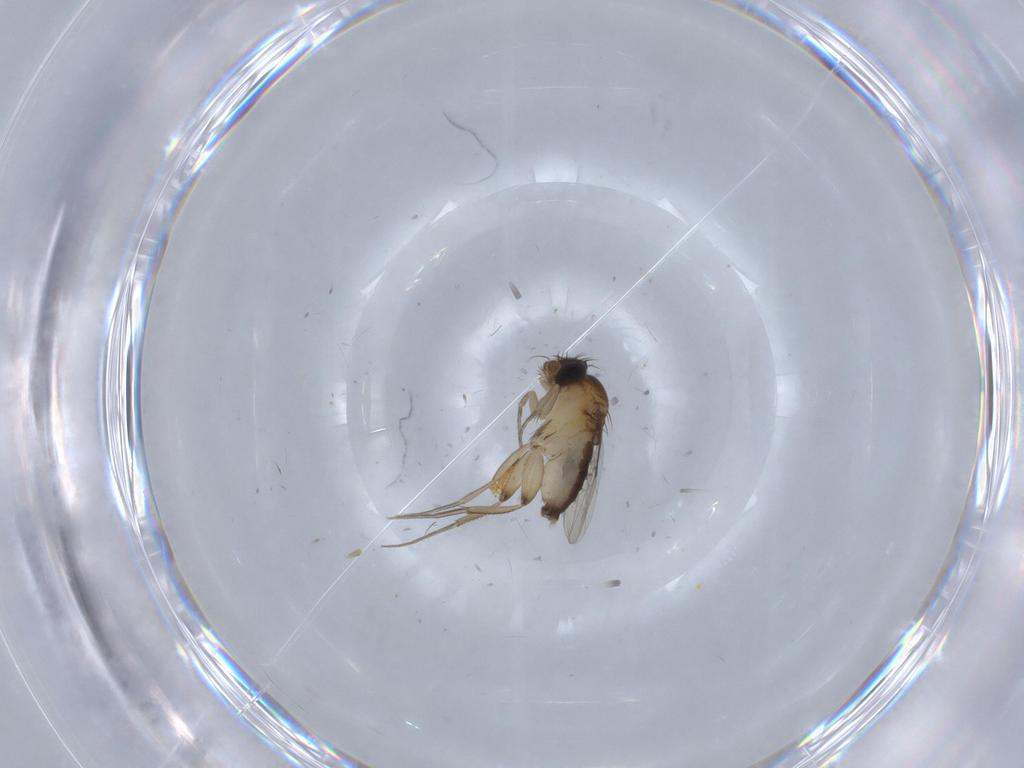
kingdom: Animalia
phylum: Arthropoda
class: Insecta
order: Diptera
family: Phoridae
